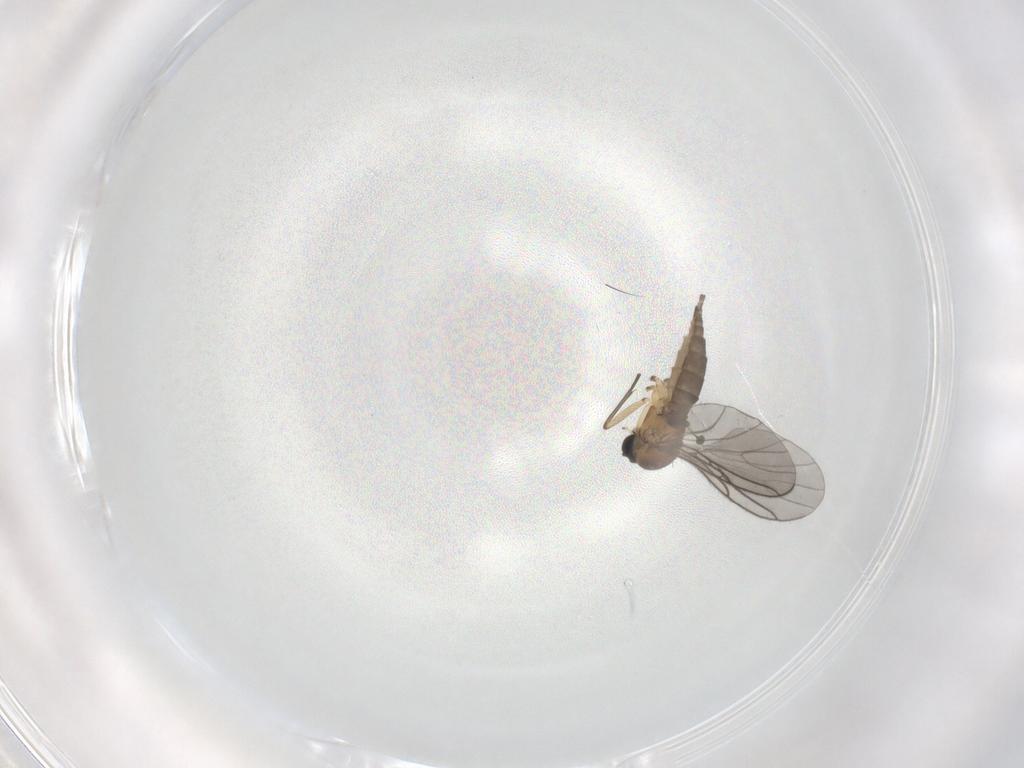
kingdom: Animalia
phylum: Arthropoda
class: Insecta
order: Diptera
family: Sciaridae
